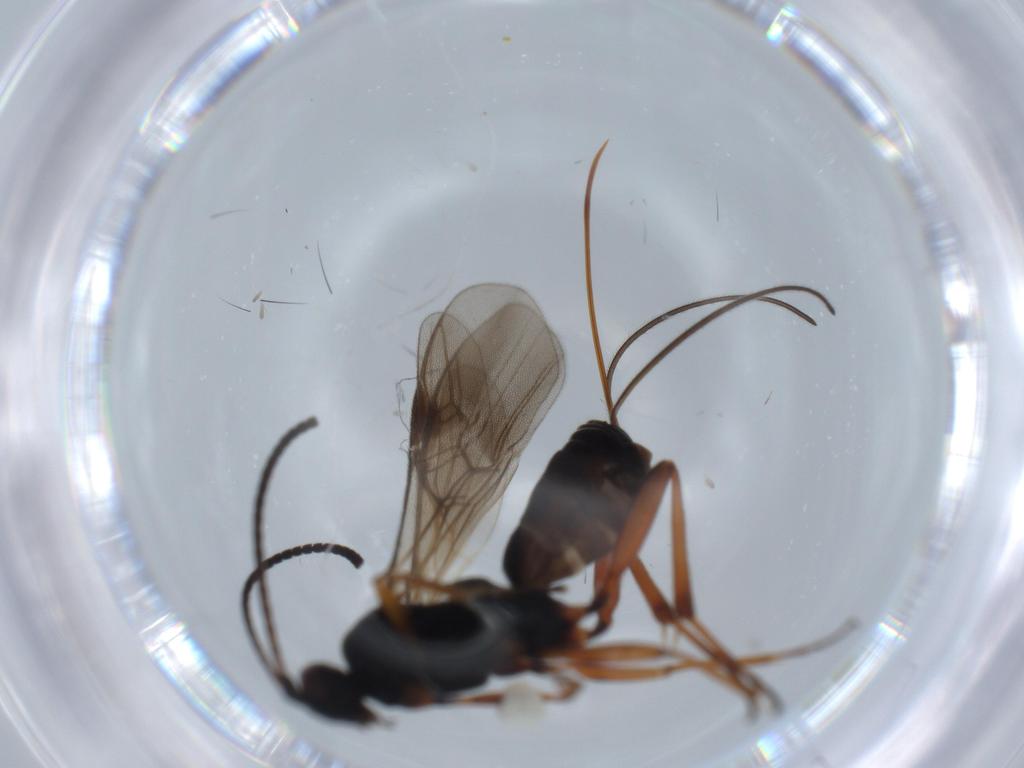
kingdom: Animalia
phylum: Arthropoda
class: Insecta
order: Hymenoptera
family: Braconidae
